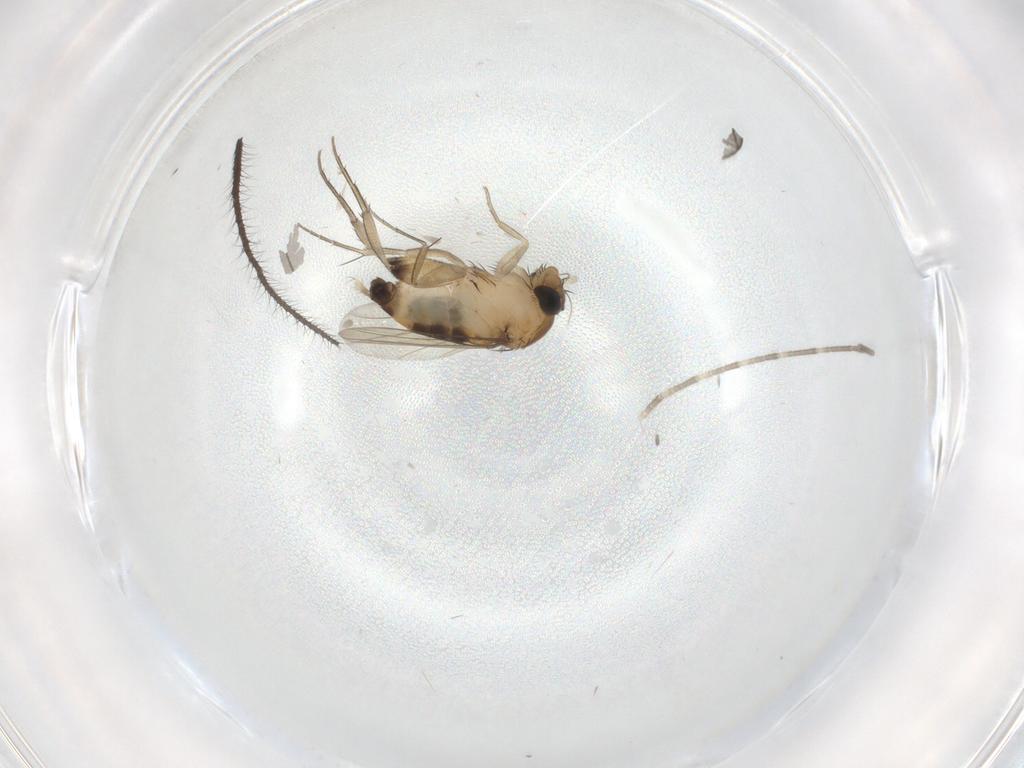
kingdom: Animalia
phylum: Arthropoda
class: Insecta
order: Diptera
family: Cecidomyiidae
